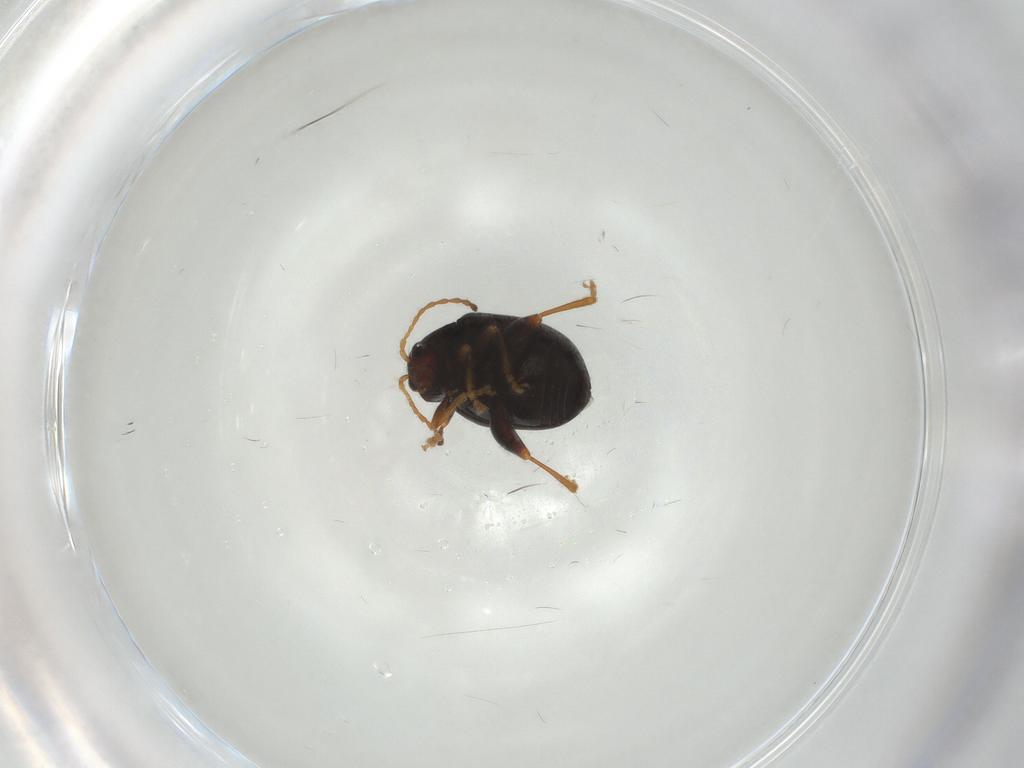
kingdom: Animalia
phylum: Arthropoda
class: Insecta
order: Coleoptera
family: Chrysomelidae
